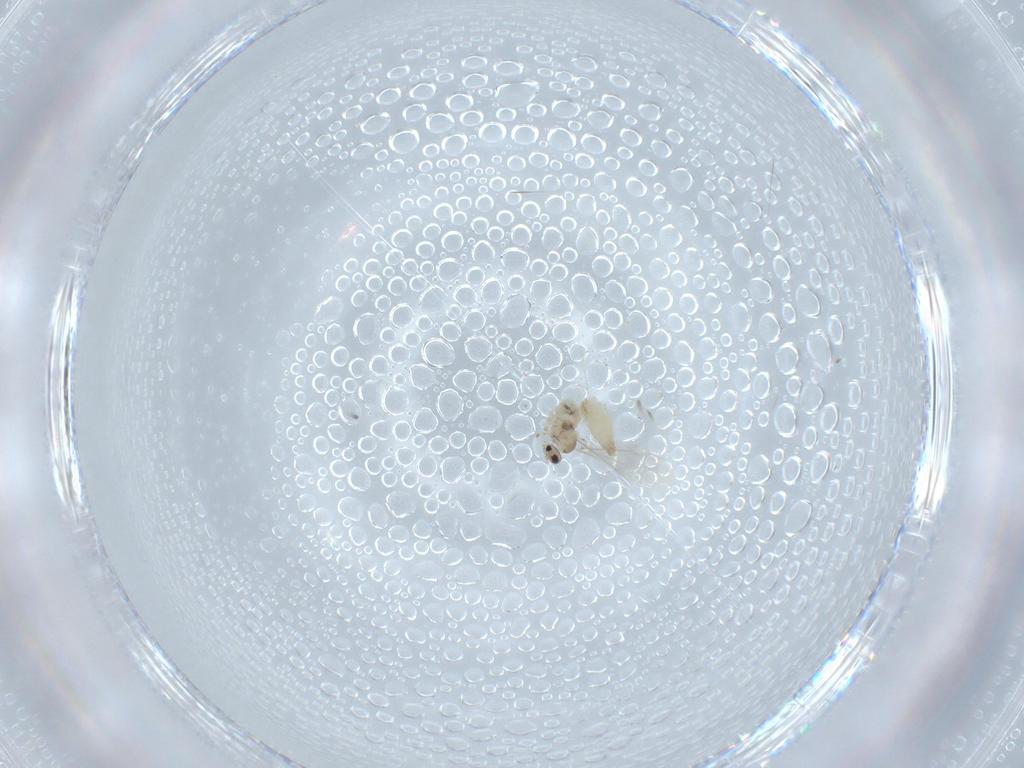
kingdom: Animalia
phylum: Arthropoda
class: Insecta
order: Diptera
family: Cecidomyiidae
